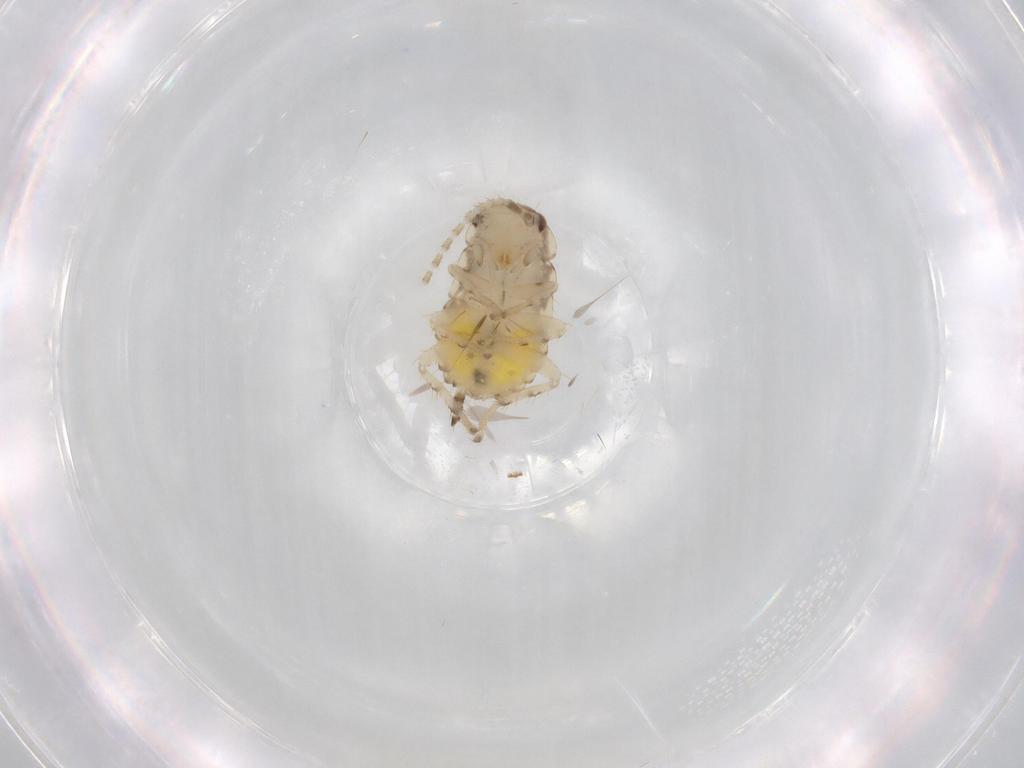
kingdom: Animalia
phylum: Arthropoda
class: Insecta
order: Blattodea
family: Ectobiidae
